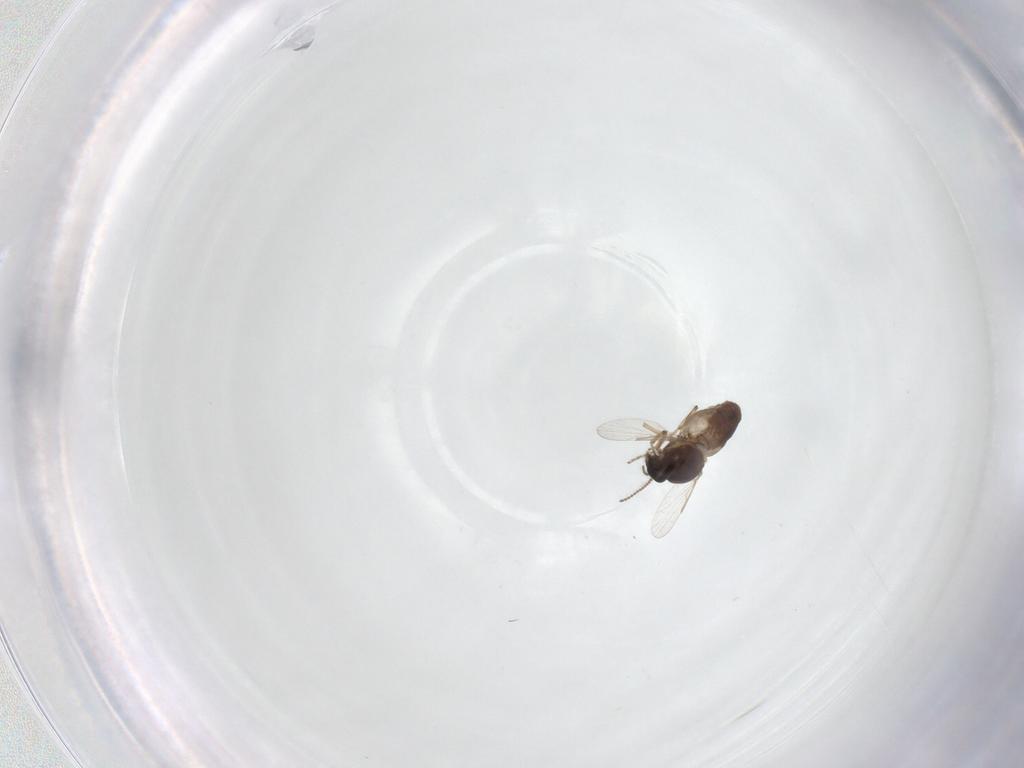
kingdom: Animalia
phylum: Arthropoda
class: Insecta
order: Diptera
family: Ceratopogonidae
